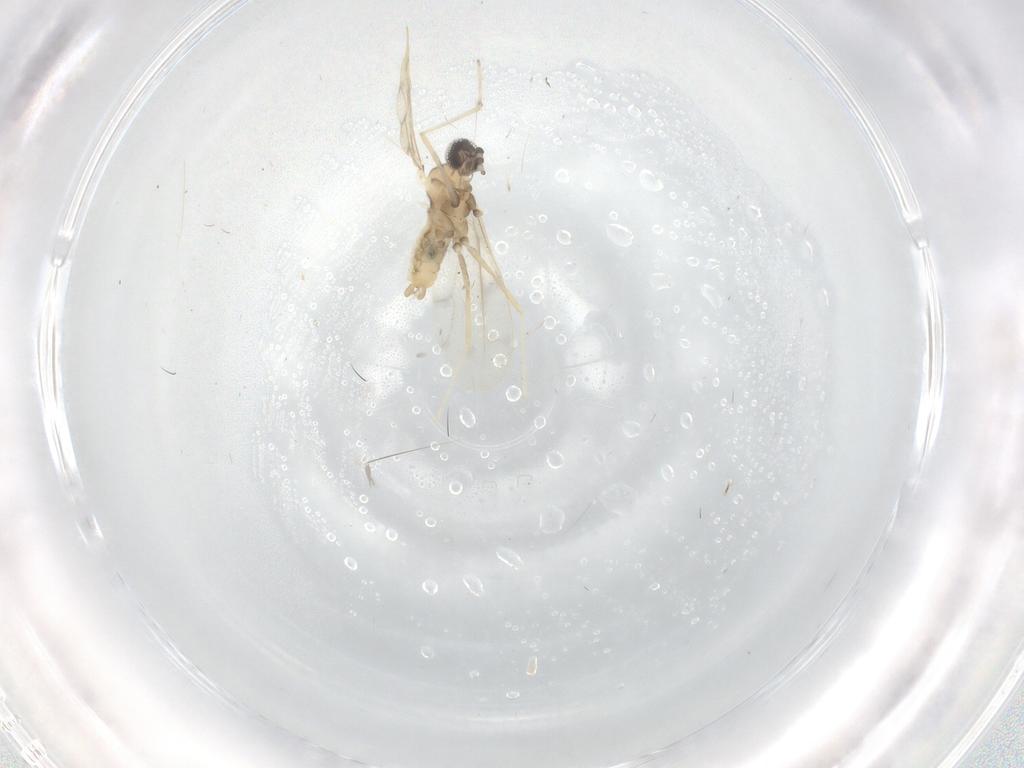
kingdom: Animalia
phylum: Arthropoda
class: Insecta
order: Diptera
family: Cecidomyiidae
